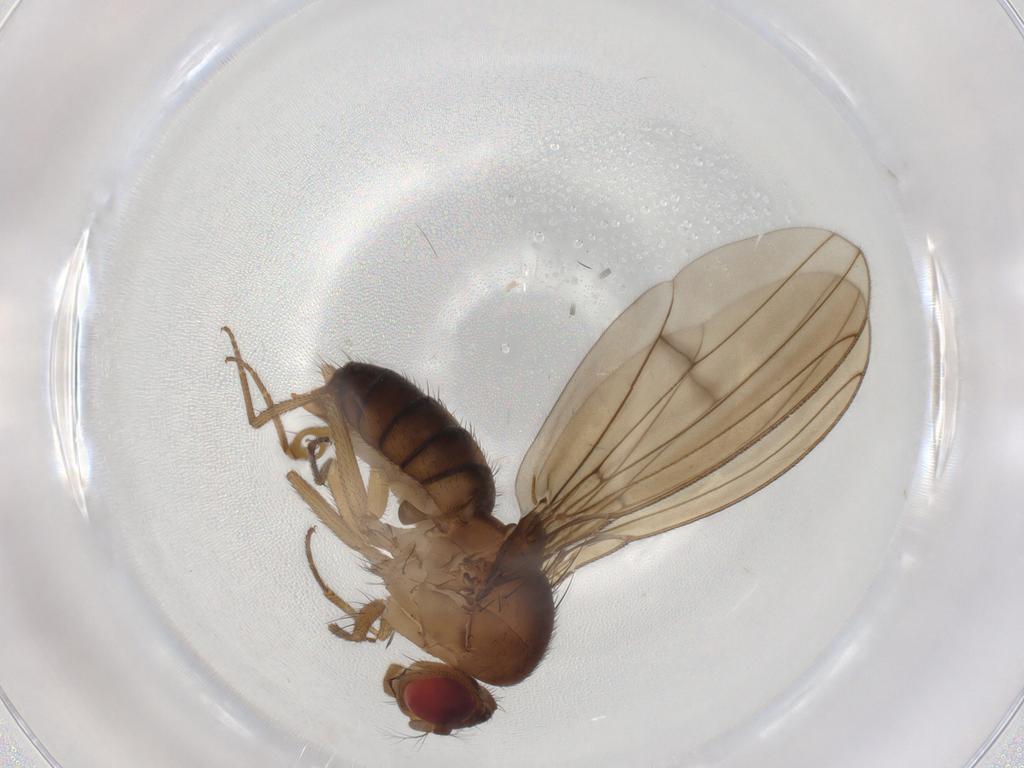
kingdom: Animalia
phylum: Arthropoda
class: Insecta
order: Diptera
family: Drosophilidae
